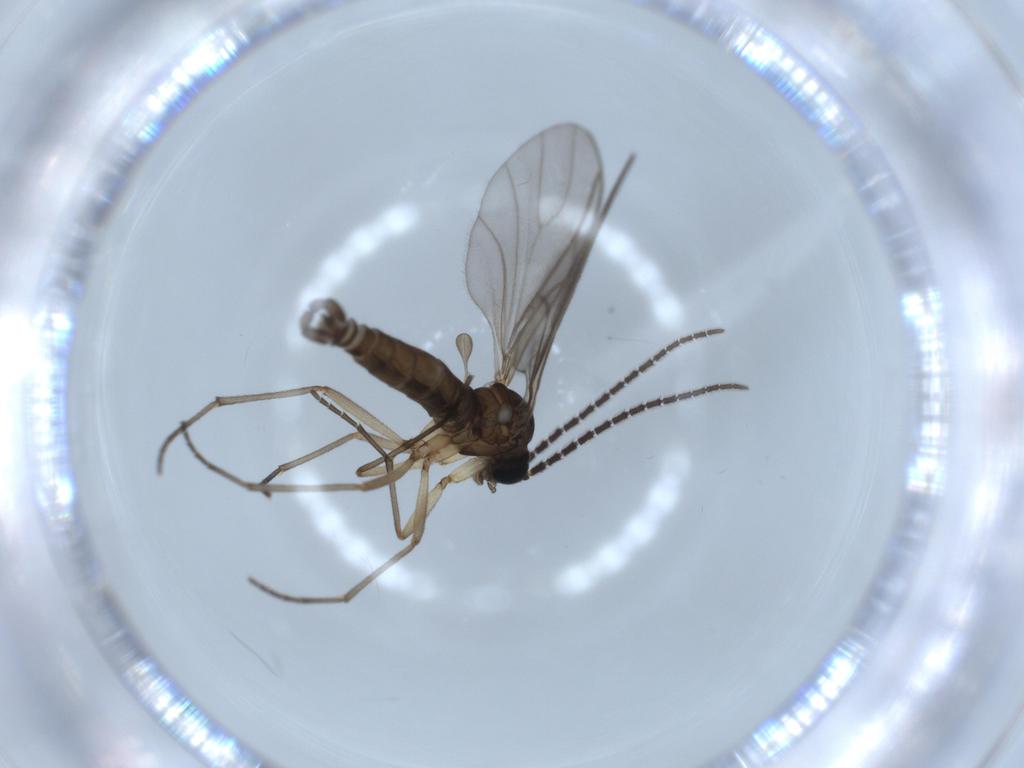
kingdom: Animalia
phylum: Arthropoda
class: Insecta
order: Diptera
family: Sciaridae
